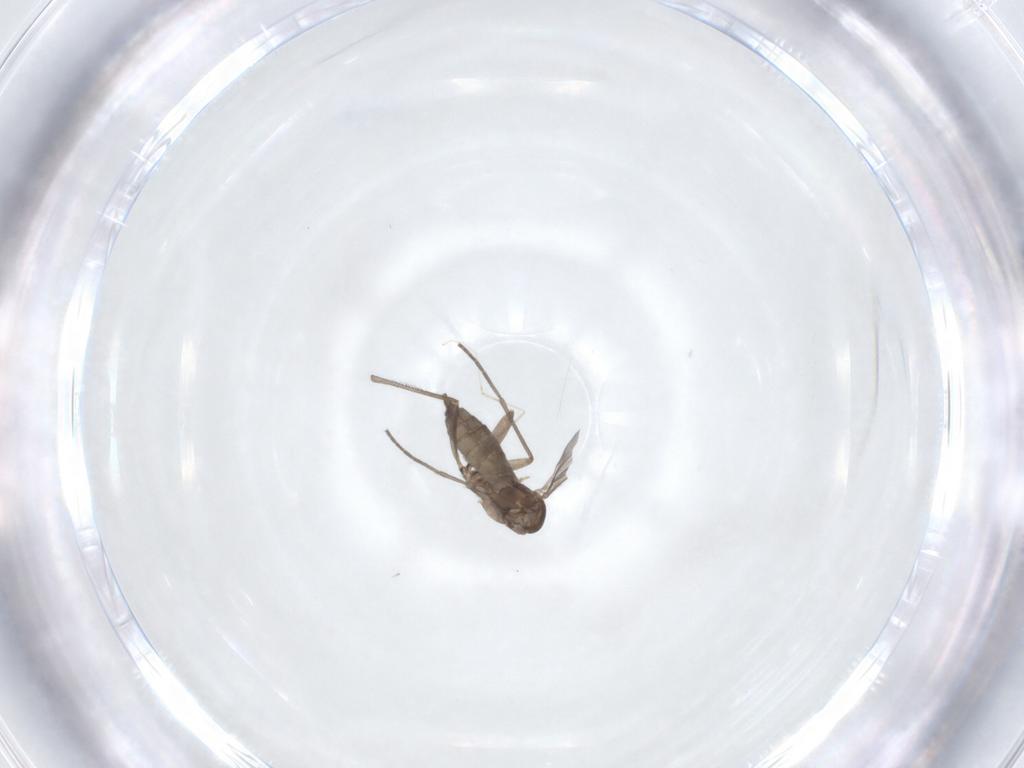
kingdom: Animalia
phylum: Arthropoda
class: Insecta
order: Diptera
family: Sciaridae
